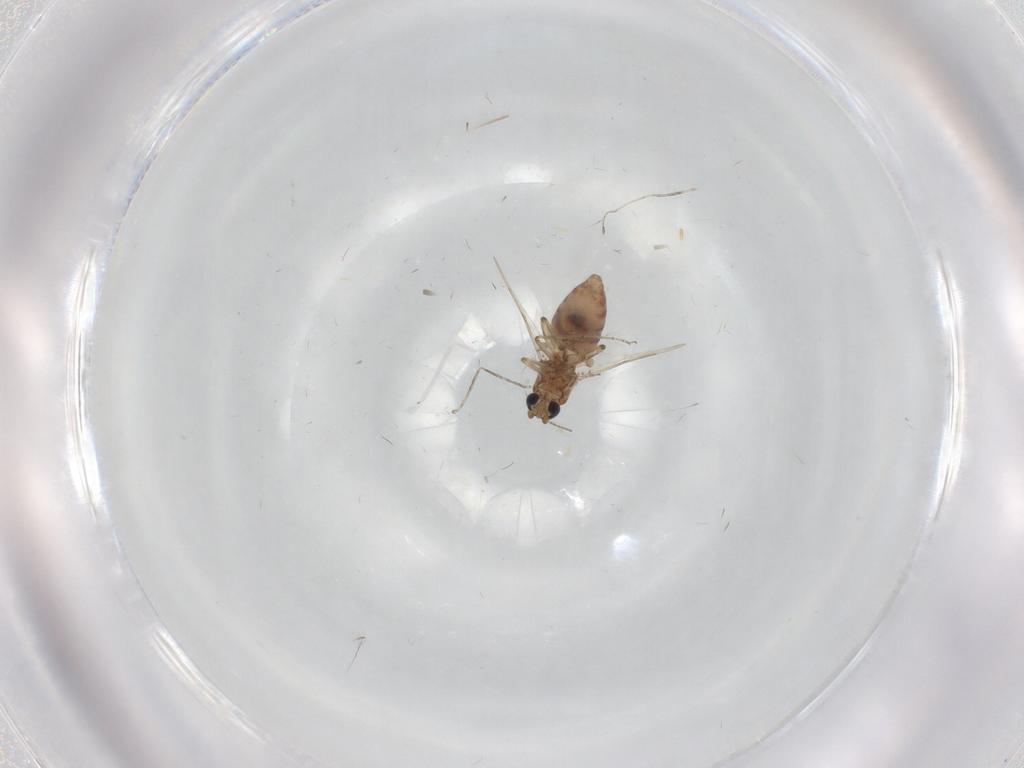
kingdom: Animalia
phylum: Arthropoda
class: Insecta
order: Diptera
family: Ceratopogonidae
